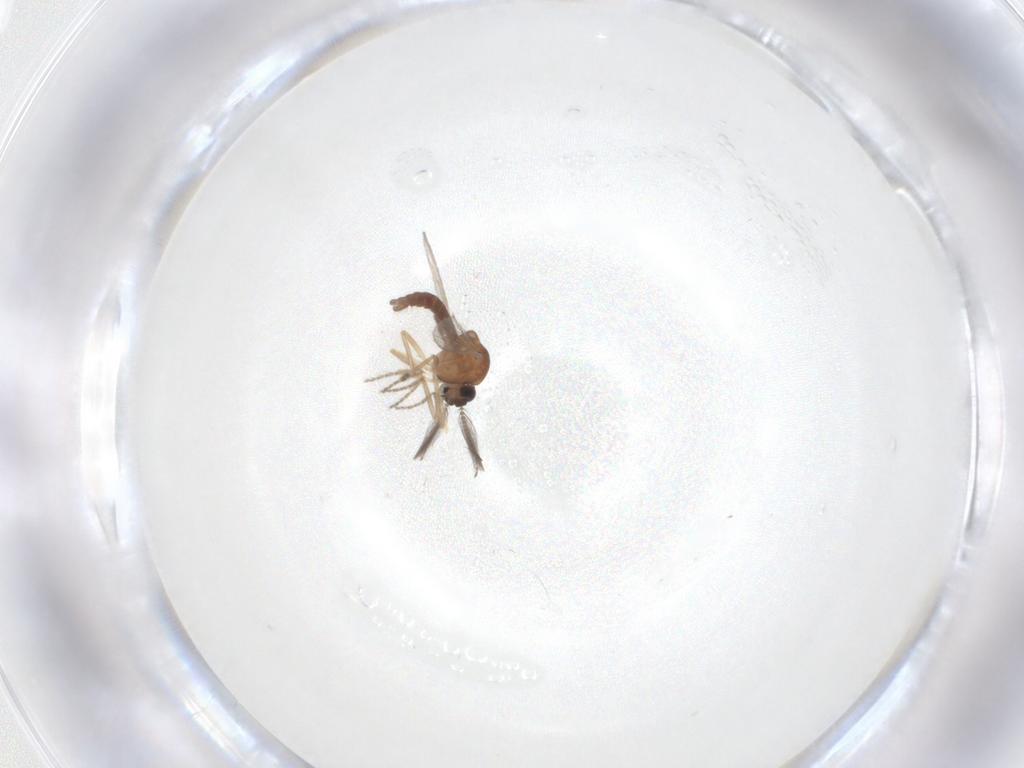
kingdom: Animalia
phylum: Arthropoda
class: Insecta
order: Diptera
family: Ceratopogonidae
